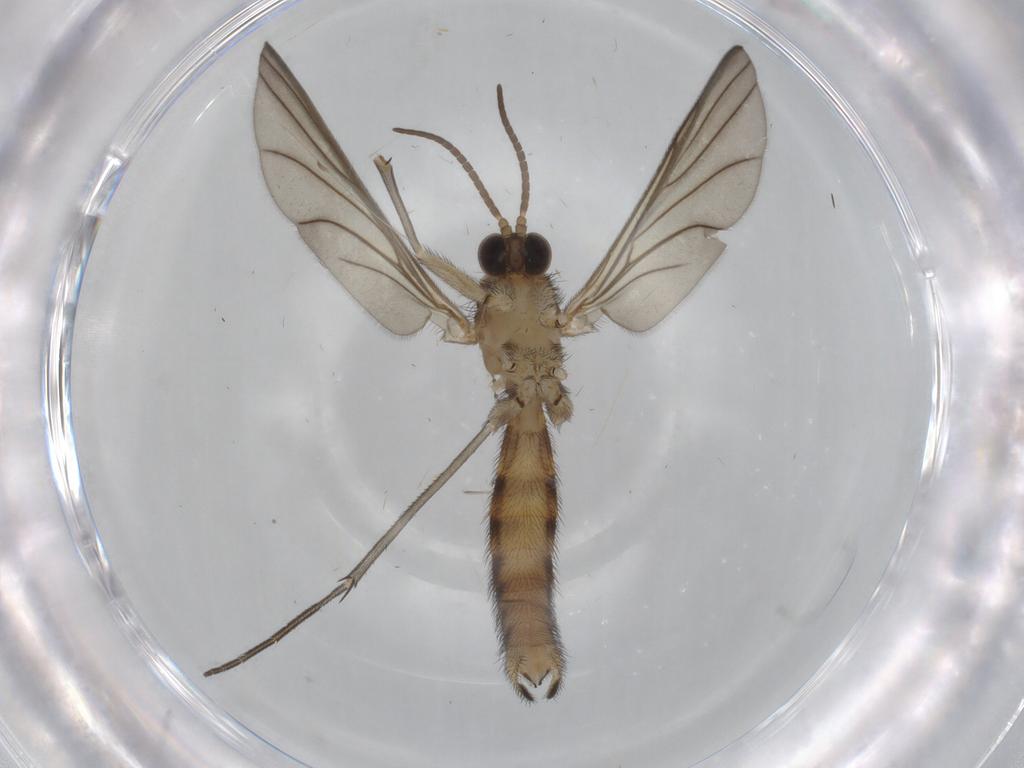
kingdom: Animalia
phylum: Arthropoda
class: Insecta
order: Diptera
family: Keroplatidae
